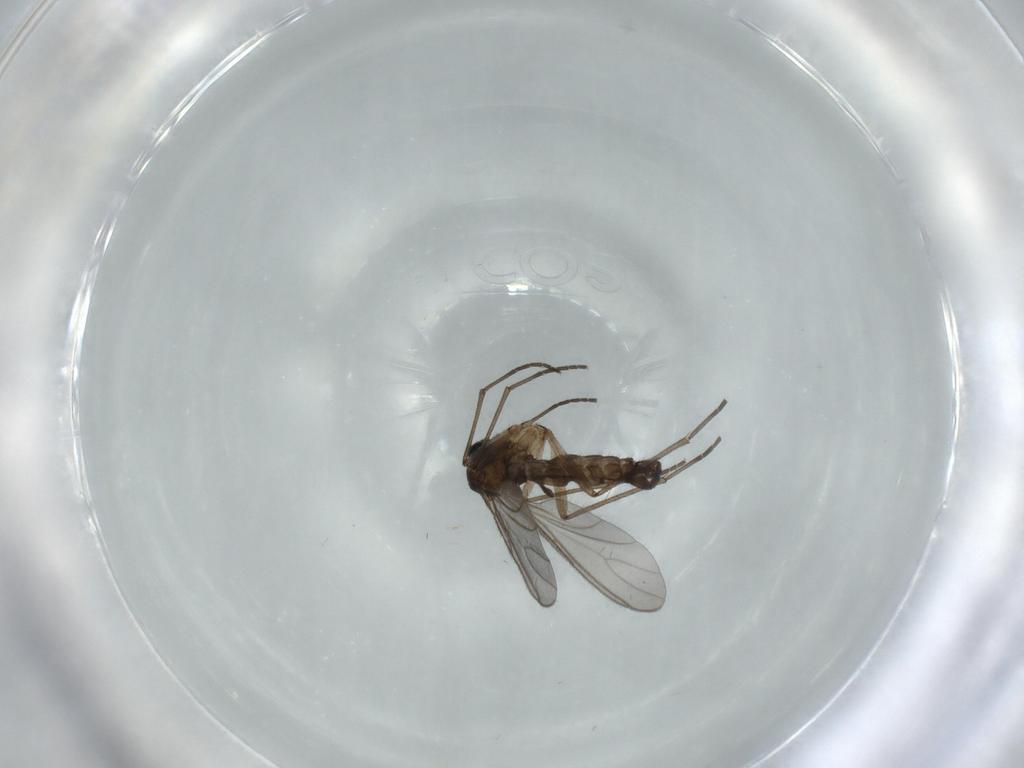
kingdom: Animalia
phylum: Arthropoda
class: Insecta
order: Diptera
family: Sciaridae
